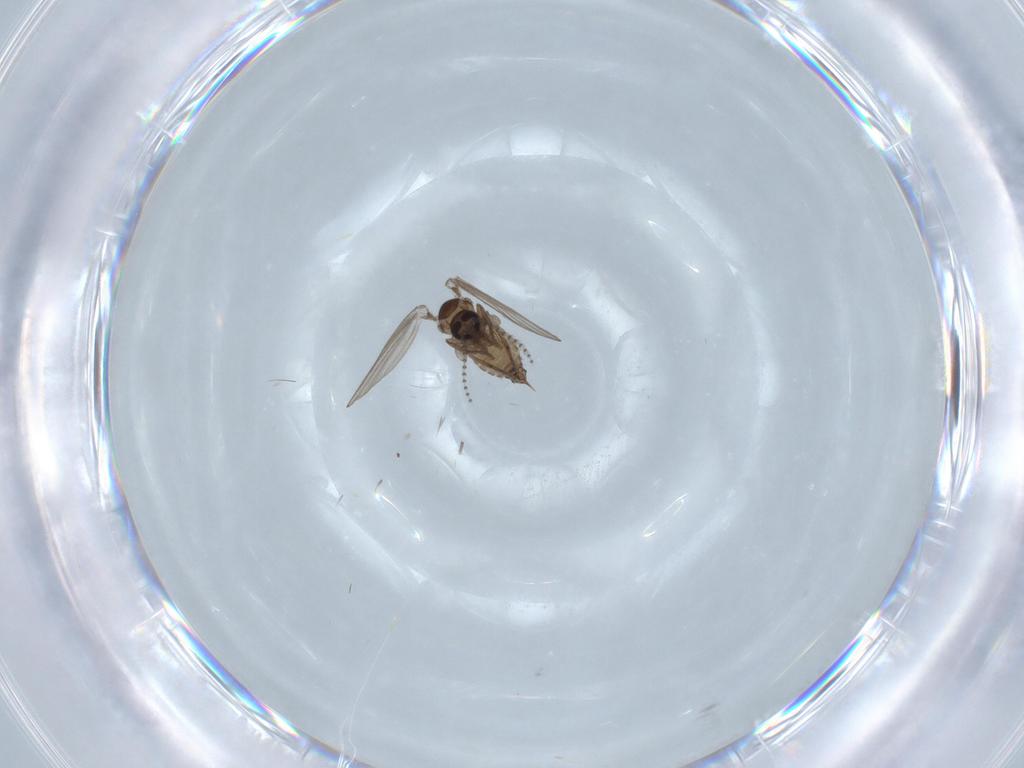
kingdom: Animalia
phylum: Arthropoda
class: Insecta
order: Diptera
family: Psychodidae
